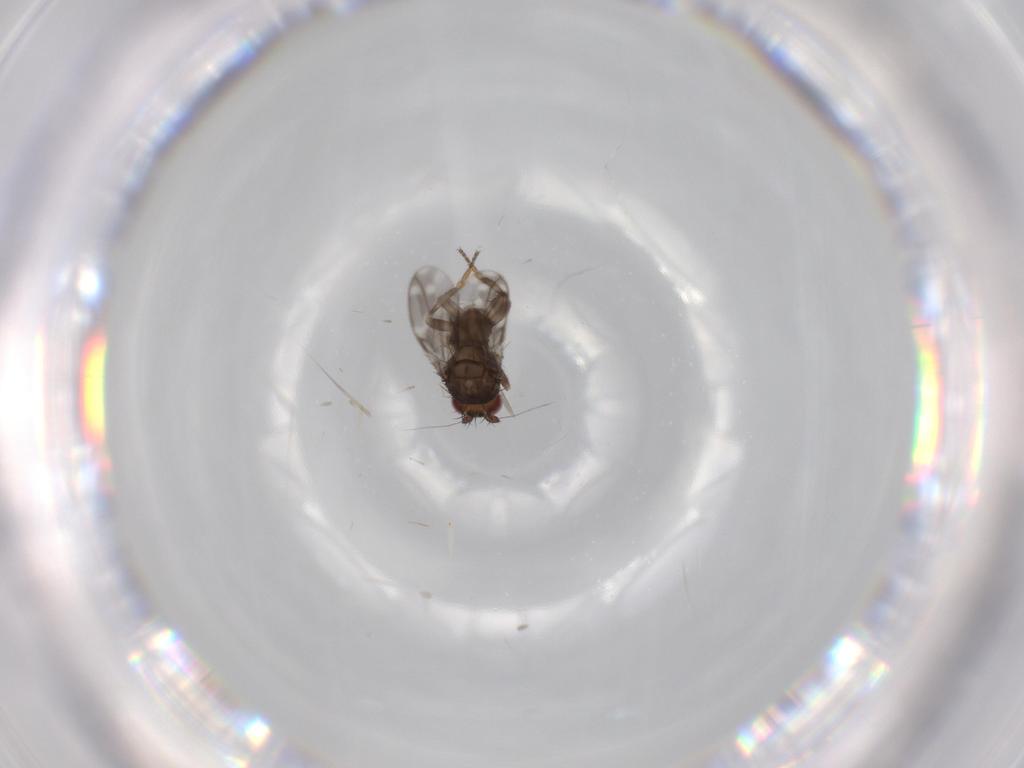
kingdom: Animalia
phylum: Arthropoda
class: Insecta
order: Diptera
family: Sphaeroceridae
